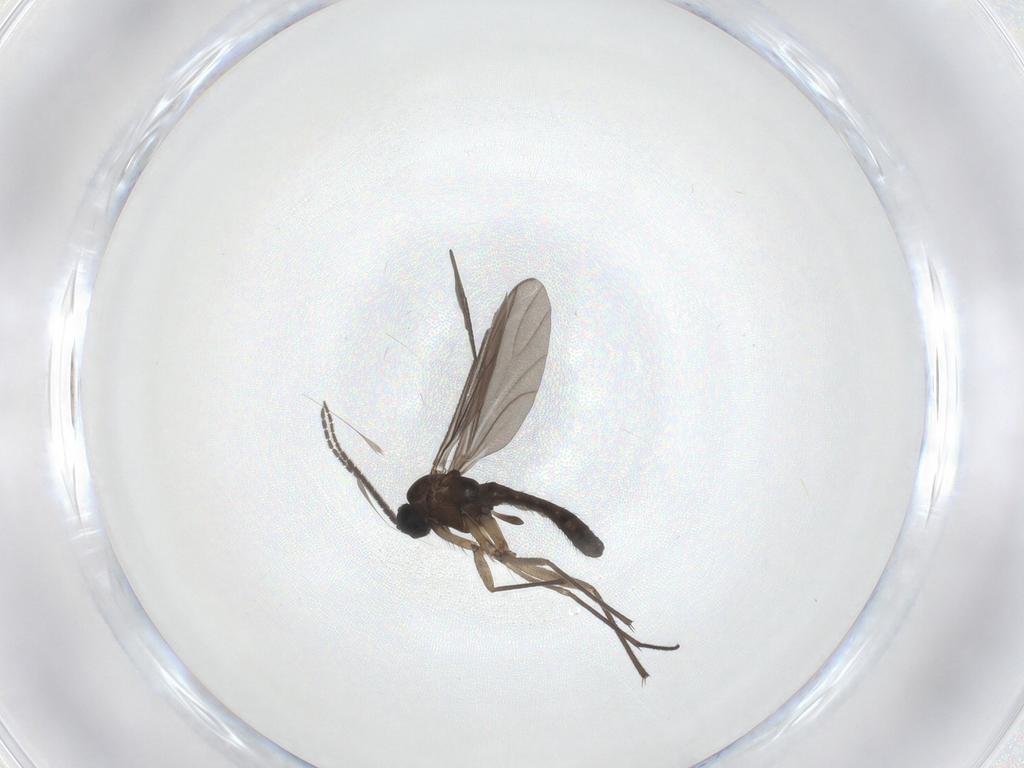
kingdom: Animalia
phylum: Arthropoda
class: Insecta
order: Diptera
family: Sciaridae
